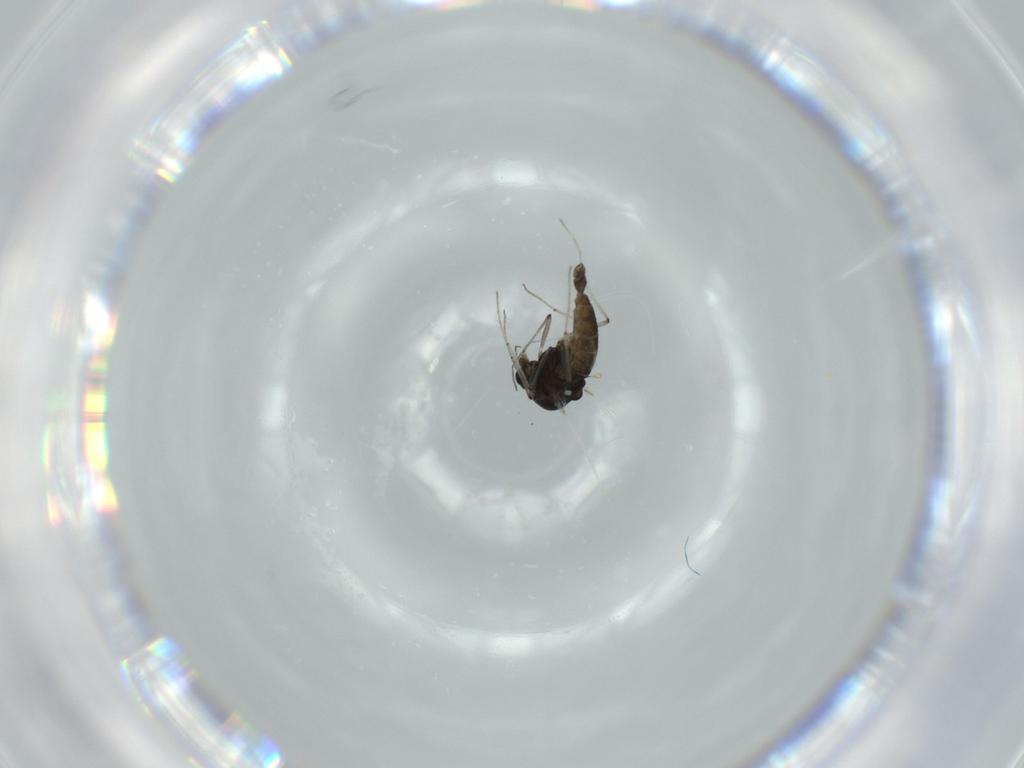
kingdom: Animalia
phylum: Arthropoda
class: Insecta
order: Diptera
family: Chironomidae
